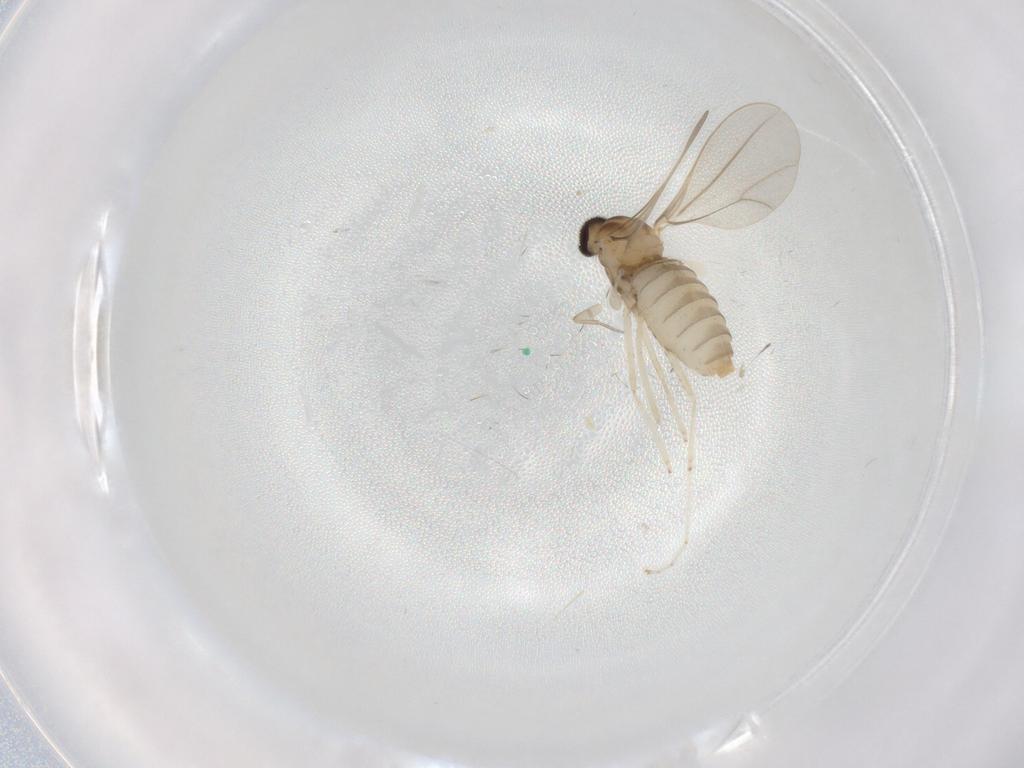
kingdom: Animalia
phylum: Arthropoda
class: Insecta
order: Diptera
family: Cecidomyiidae
